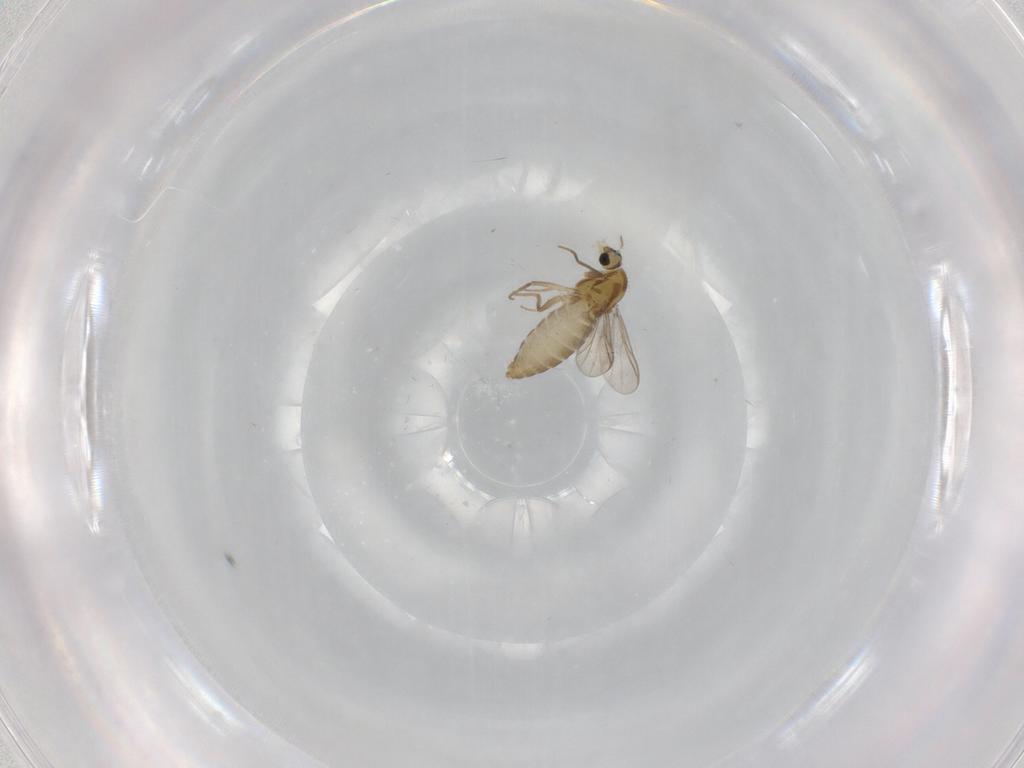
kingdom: Animalia
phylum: Arthropoda
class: Insecta
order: Diptera
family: Chironomidae
